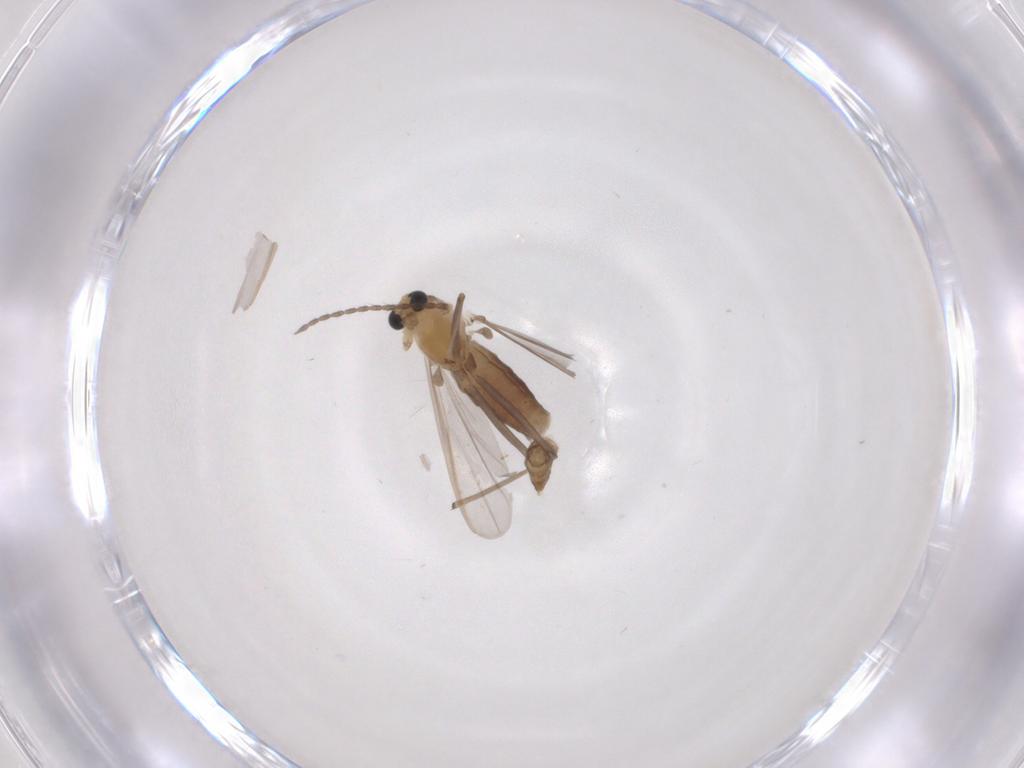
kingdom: Animalia
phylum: Arthropoda
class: Insecta
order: Diptera
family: Chironomidae
